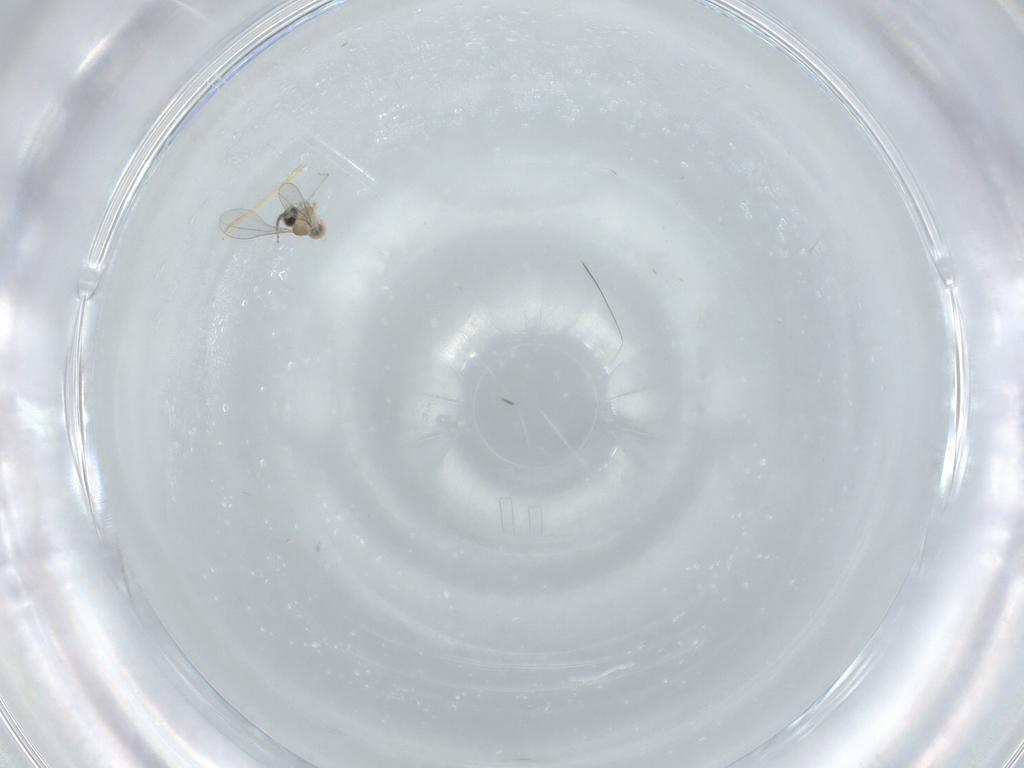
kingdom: Animalia
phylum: Arthropoda
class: Insecta
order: Diptera
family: Cecidomyiidae
